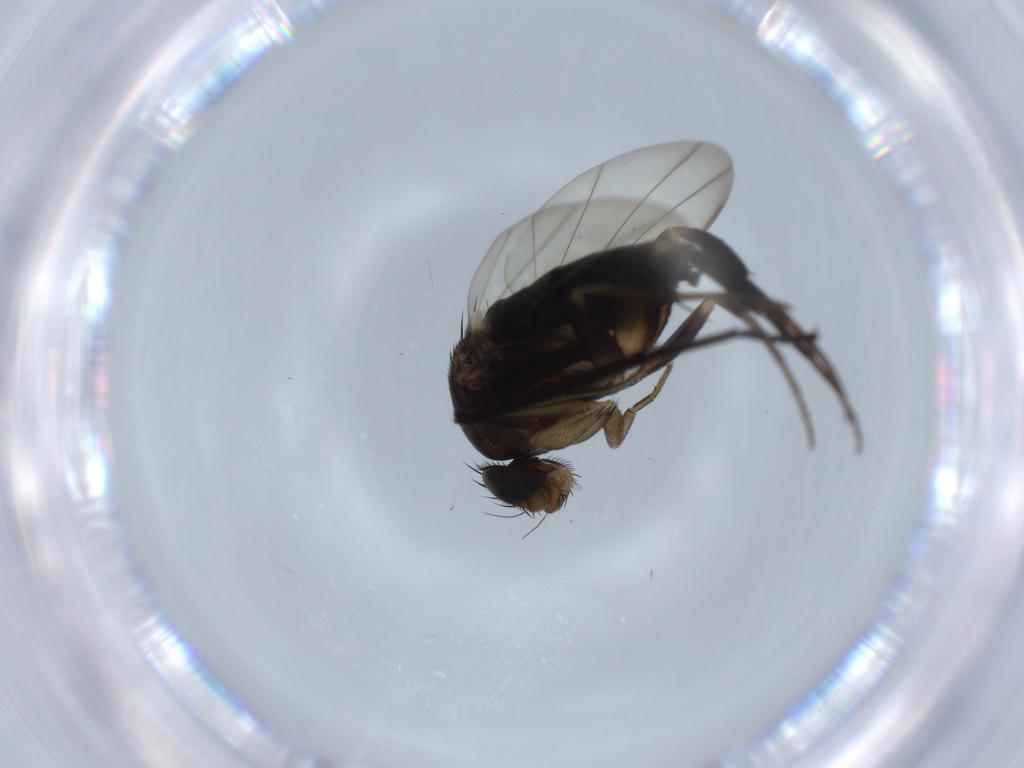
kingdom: Animalia
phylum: Arthropoda
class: Insecta
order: Diptera
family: Phoridae
